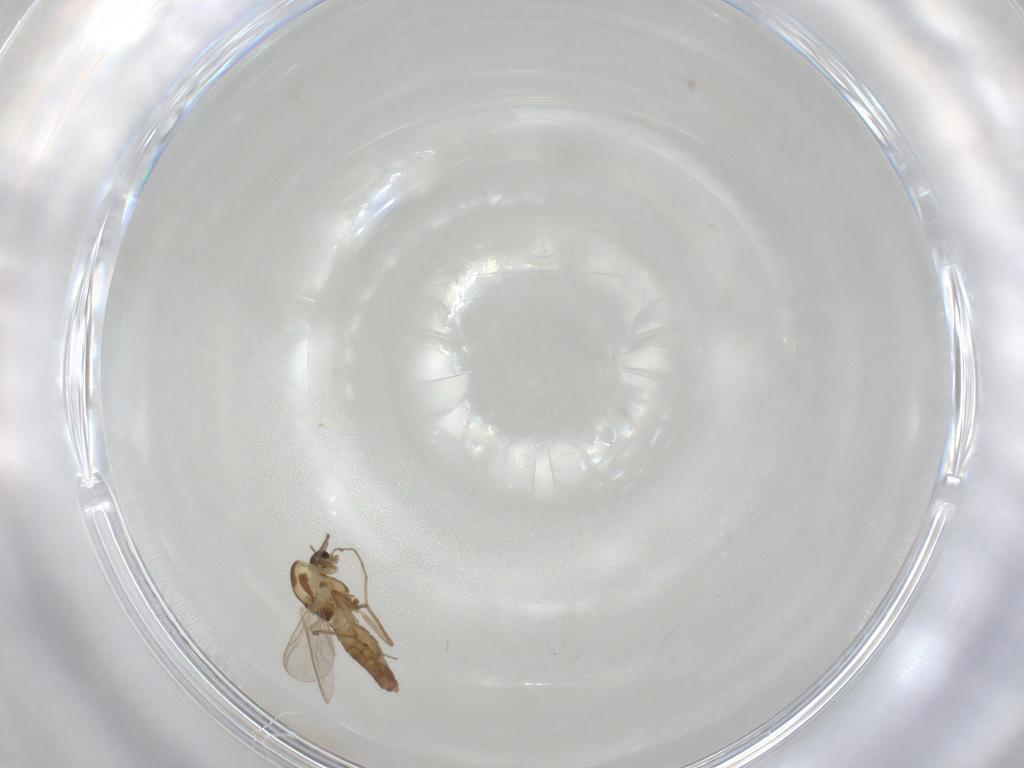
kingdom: Animalia
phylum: Arthropoda
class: Insecta
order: Diptera
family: Chironomidae
